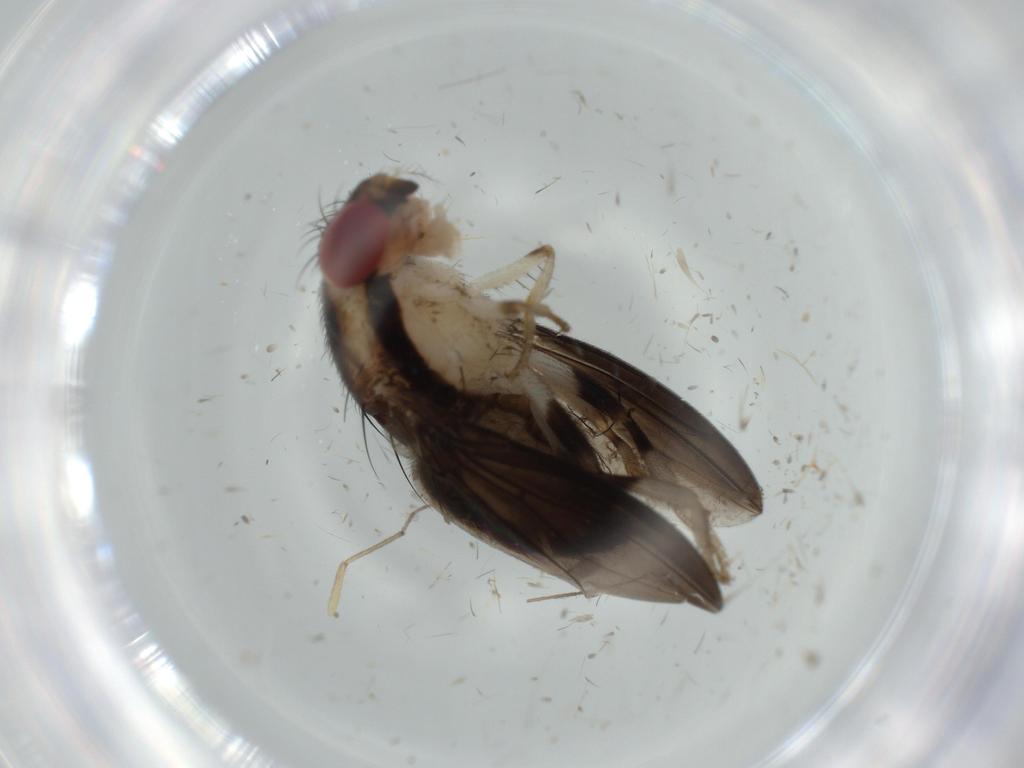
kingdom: Animalia
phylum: Arthropoda
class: Insecta
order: Diptera
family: Chironomidae
